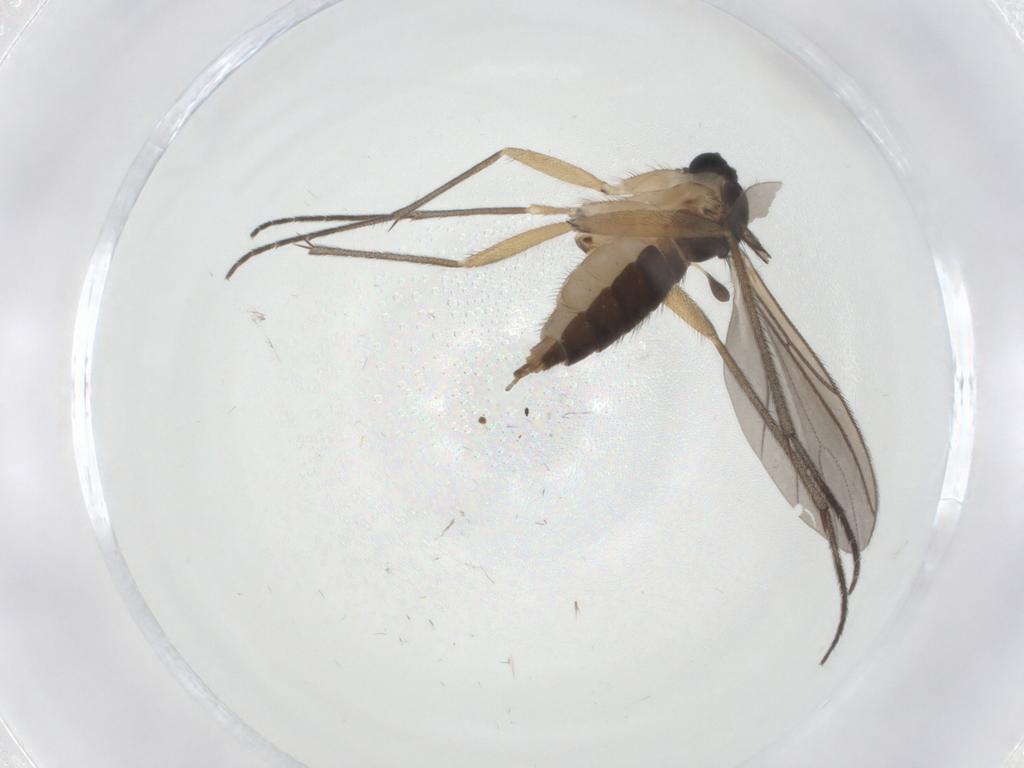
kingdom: Animalia
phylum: Arthropoda
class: Insecta
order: Diptera
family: Sciaridae
